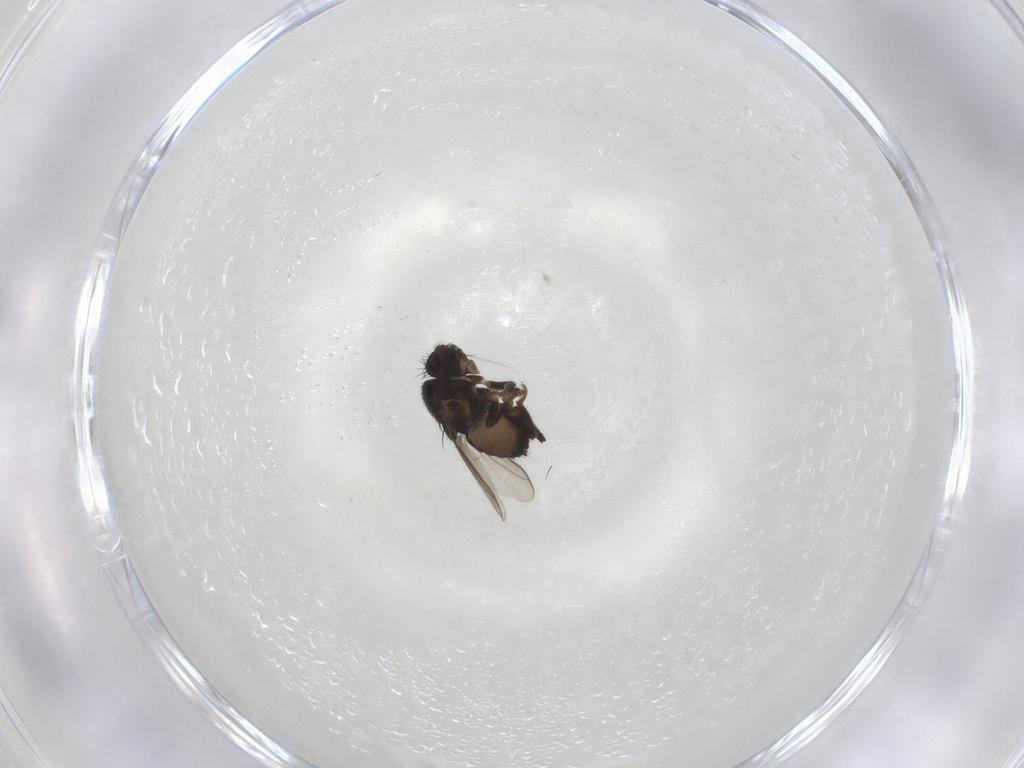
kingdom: Animalia
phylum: Arthropoda
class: Insecta
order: Diptera
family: Sphaeroceridae
